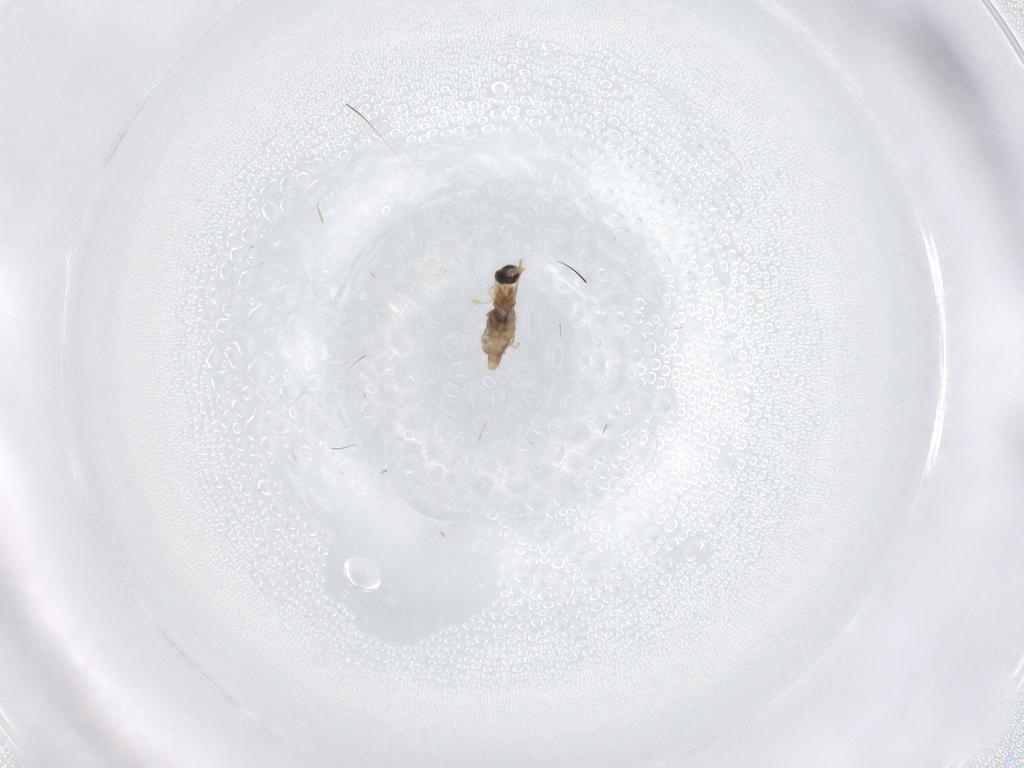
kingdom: Animalia
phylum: Arthropoda
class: Insecta
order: Diptera
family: Cecidomyiidae
